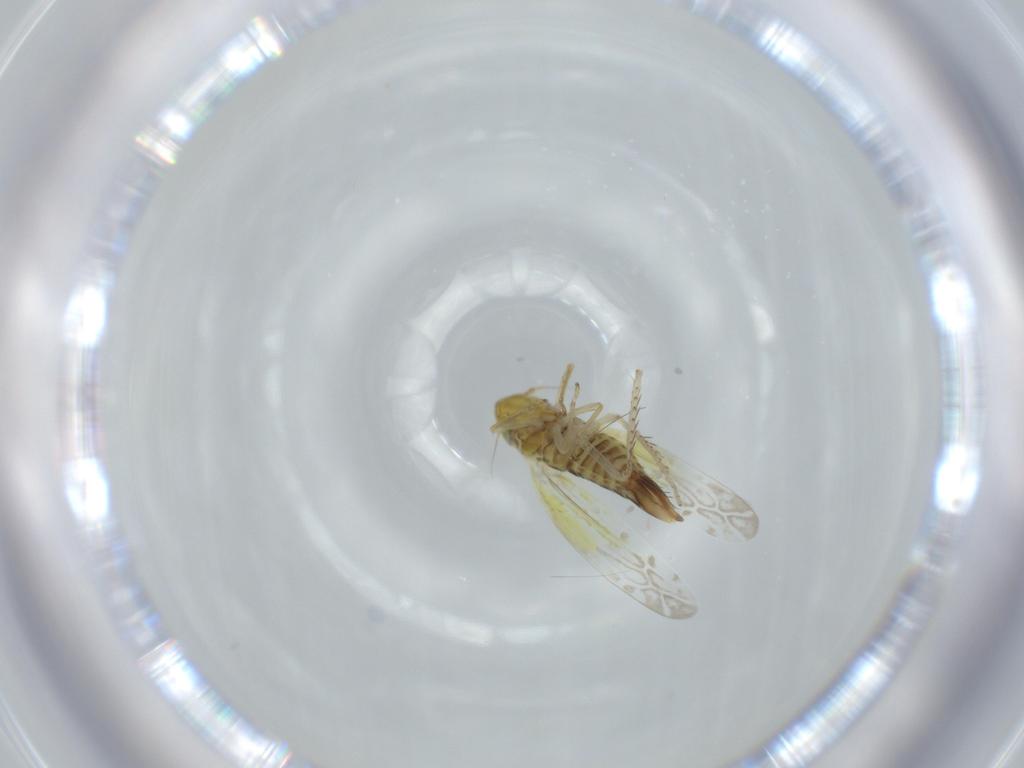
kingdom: Animalia
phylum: Arthropoda
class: Insecta
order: Hemiptera
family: Cicadellidae
